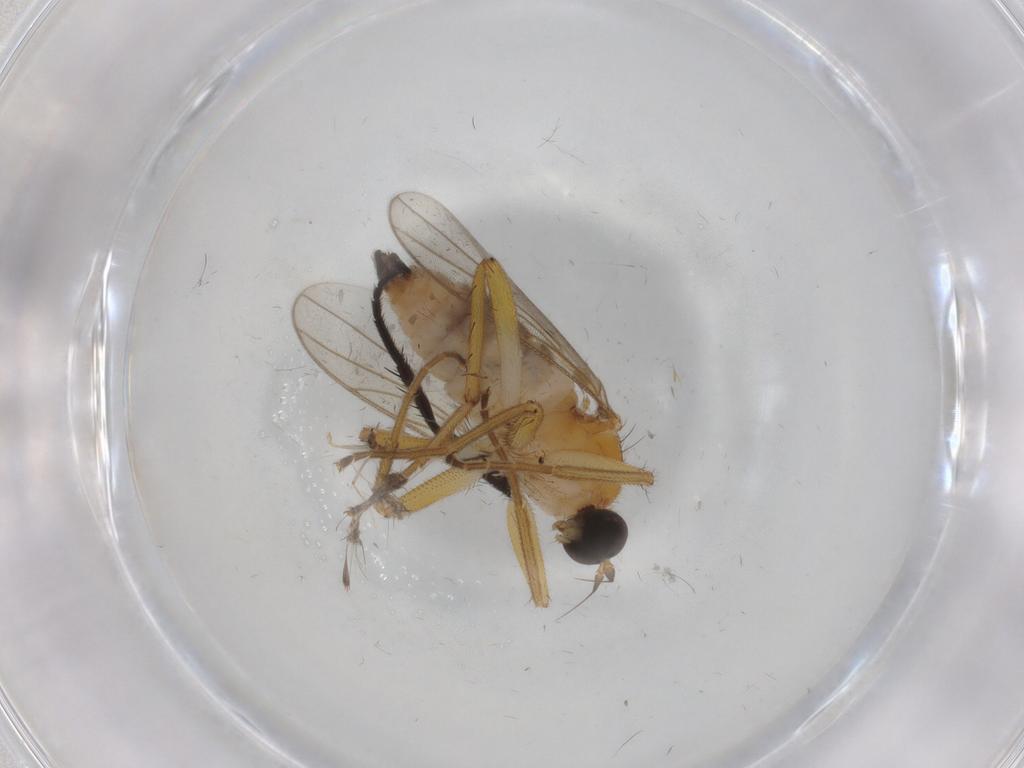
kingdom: Animalia
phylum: Arthropoda
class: Insecta
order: Diptera
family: Hybotidae
